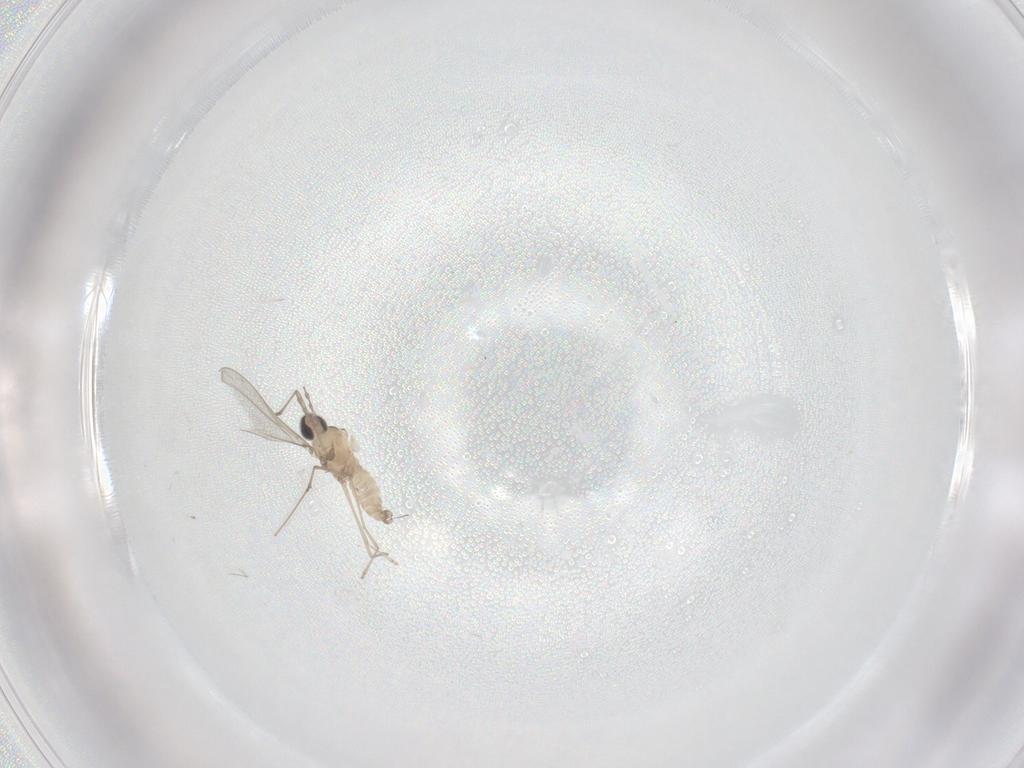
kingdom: Animalia
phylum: Arthropoda
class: Insecta
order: Diptera
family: Cecidomyiidae
